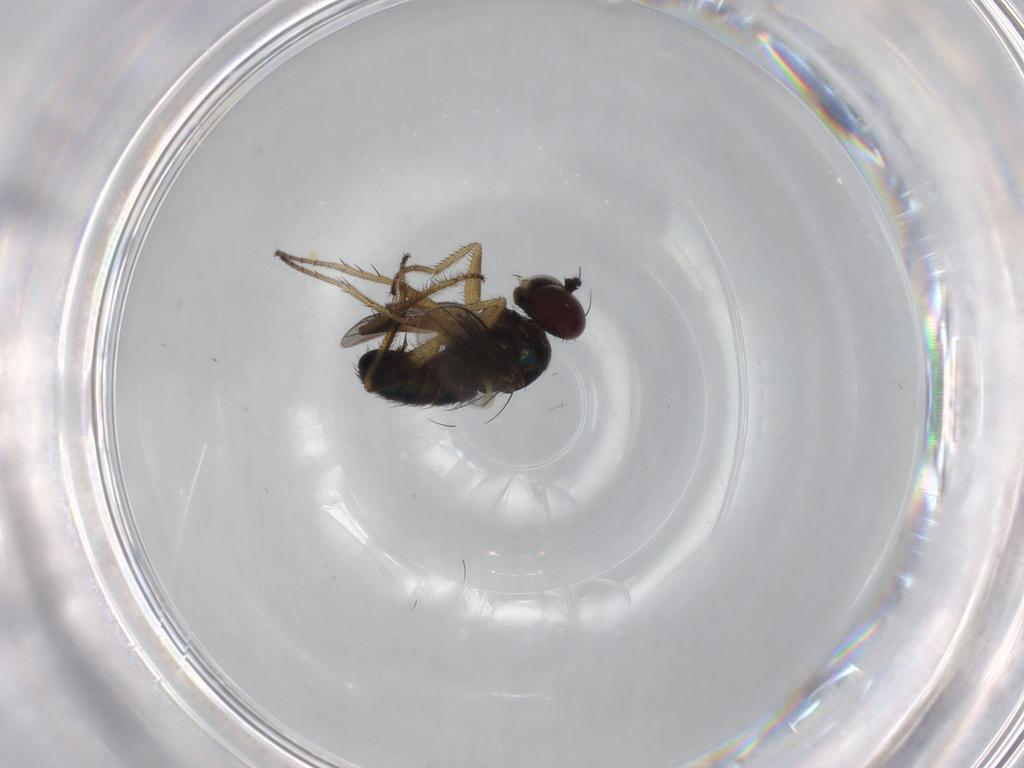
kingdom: Animalia
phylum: Arthropoda
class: Insecta
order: Diptera
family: Dolichopodidae
